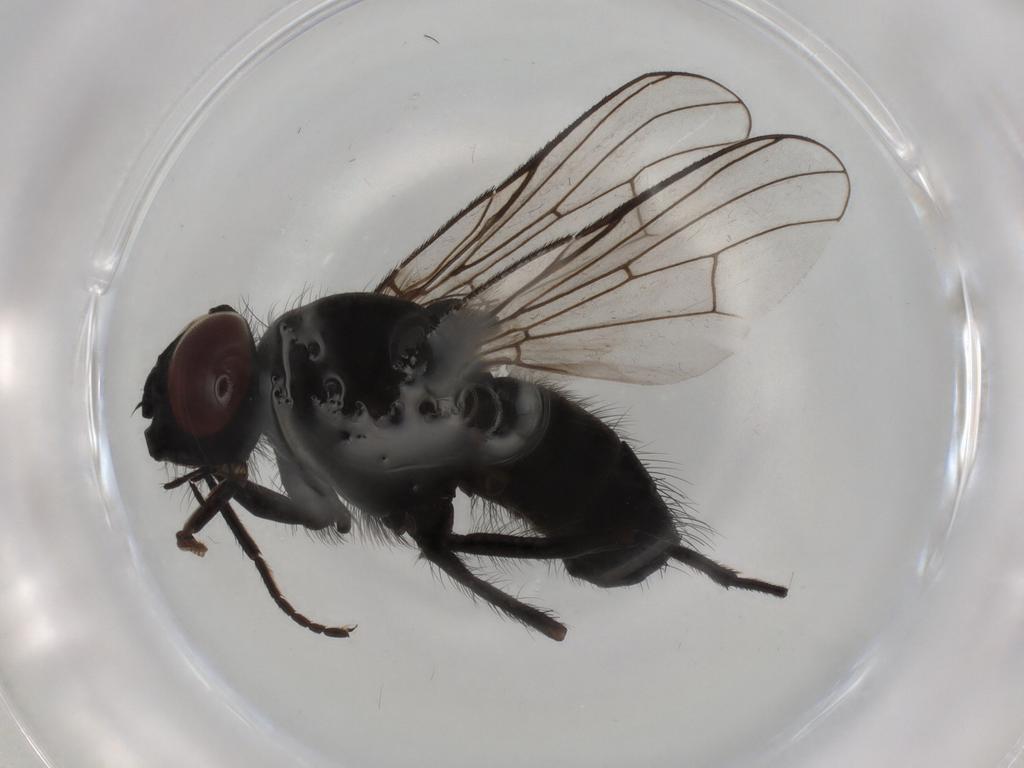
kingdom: Animalia
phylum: Arthropoda
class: Insecta
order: Diptera
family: Muscidae
